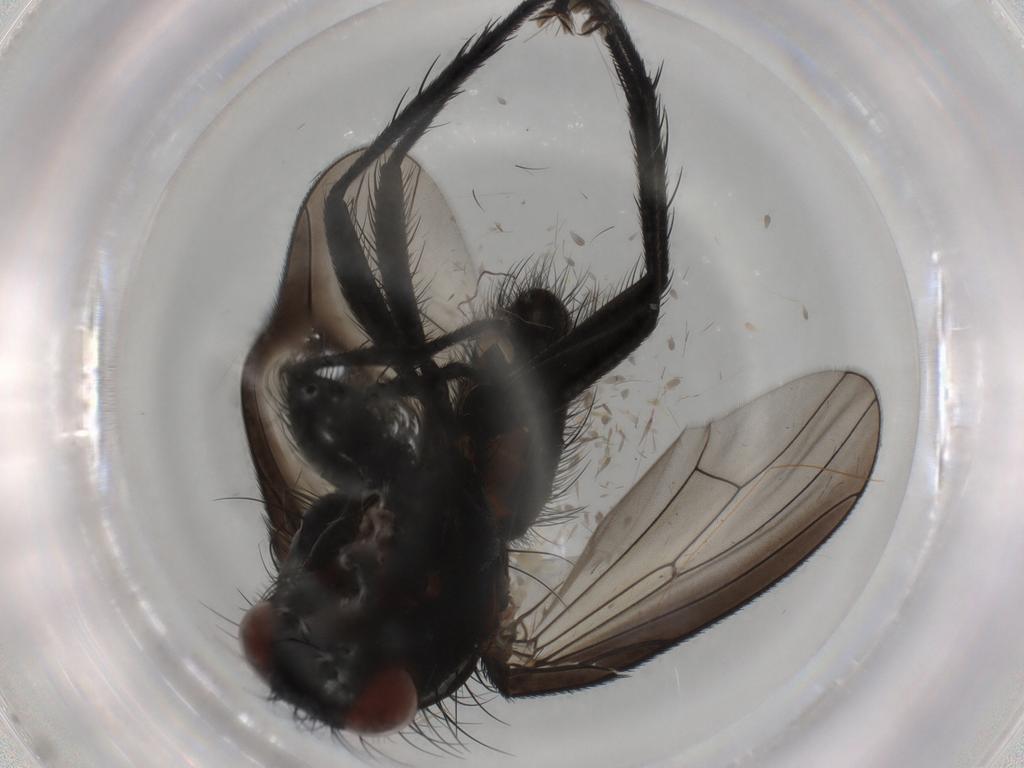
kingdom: Animalia
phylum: Arthropoda
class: Insecta
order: Diptera
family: Anthomyiidae
